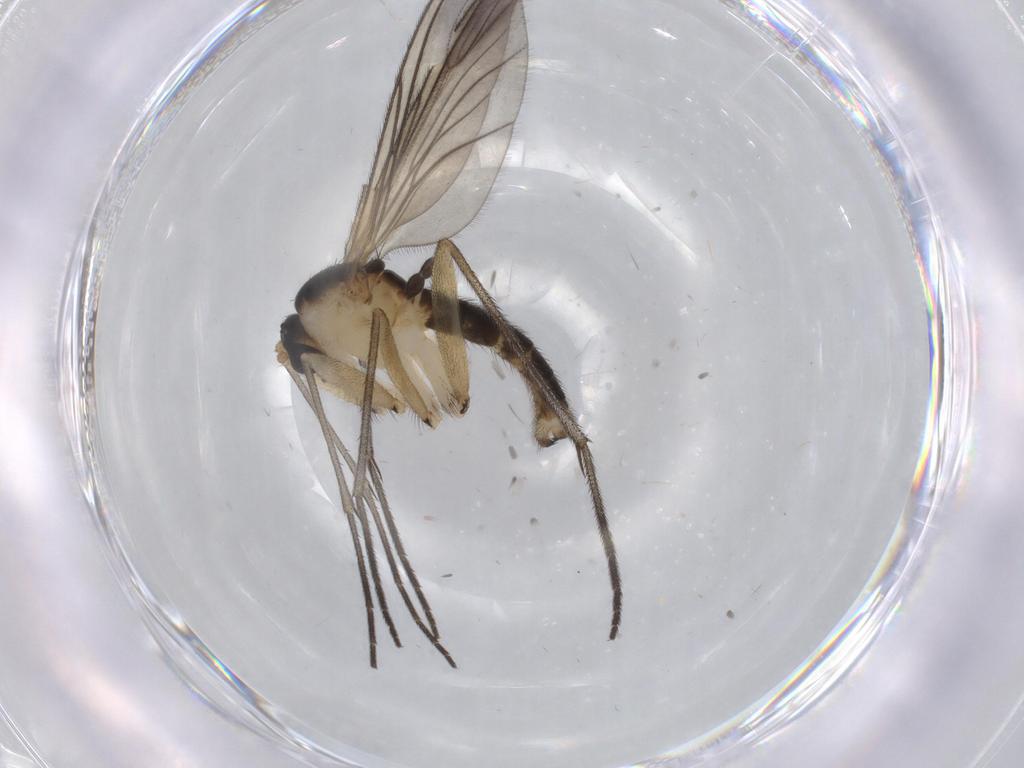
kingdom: Animalia
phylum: Arthropoda
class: Insecta
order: Diptera
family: Sciaridae
